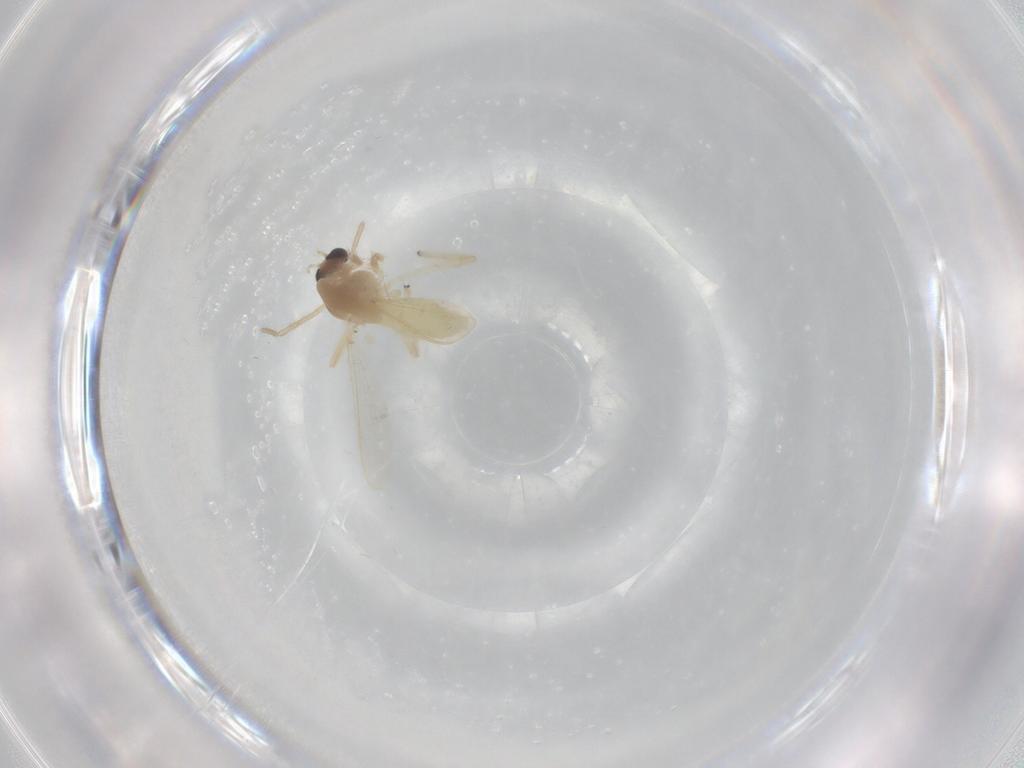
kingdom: Animalia
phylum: Arthropoda
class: Insecta
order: Diptera
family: Chironomidae
